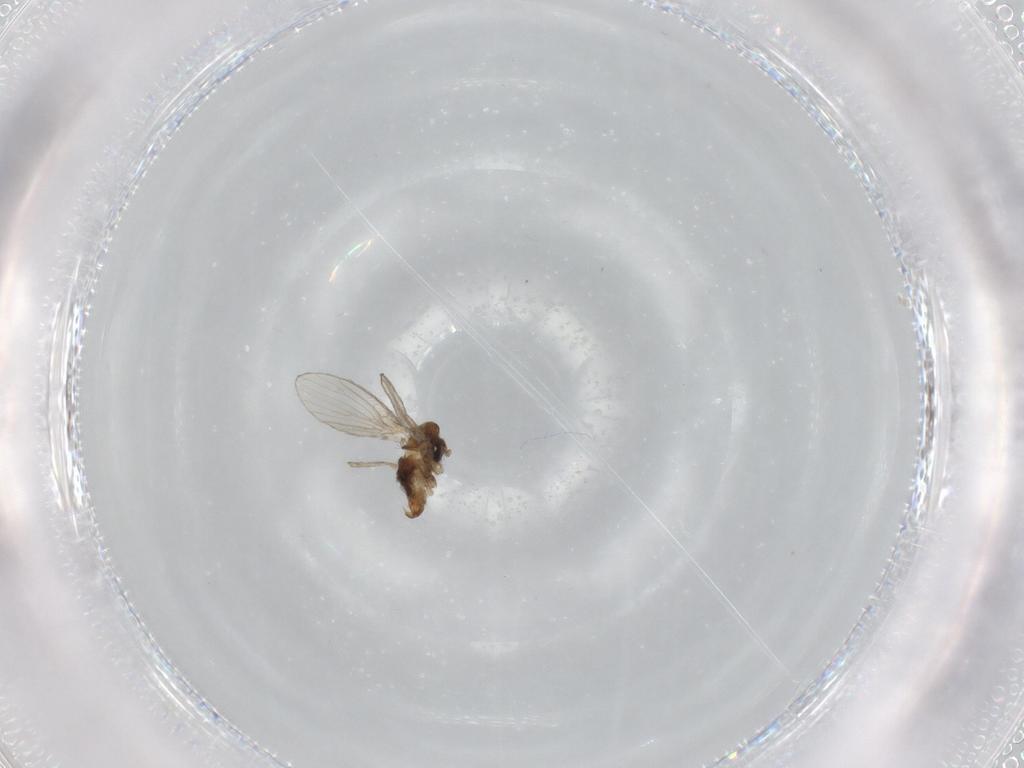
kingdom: Animalia
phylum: Arthropoda
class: Insecta
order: Diptera
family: Psychodidae
